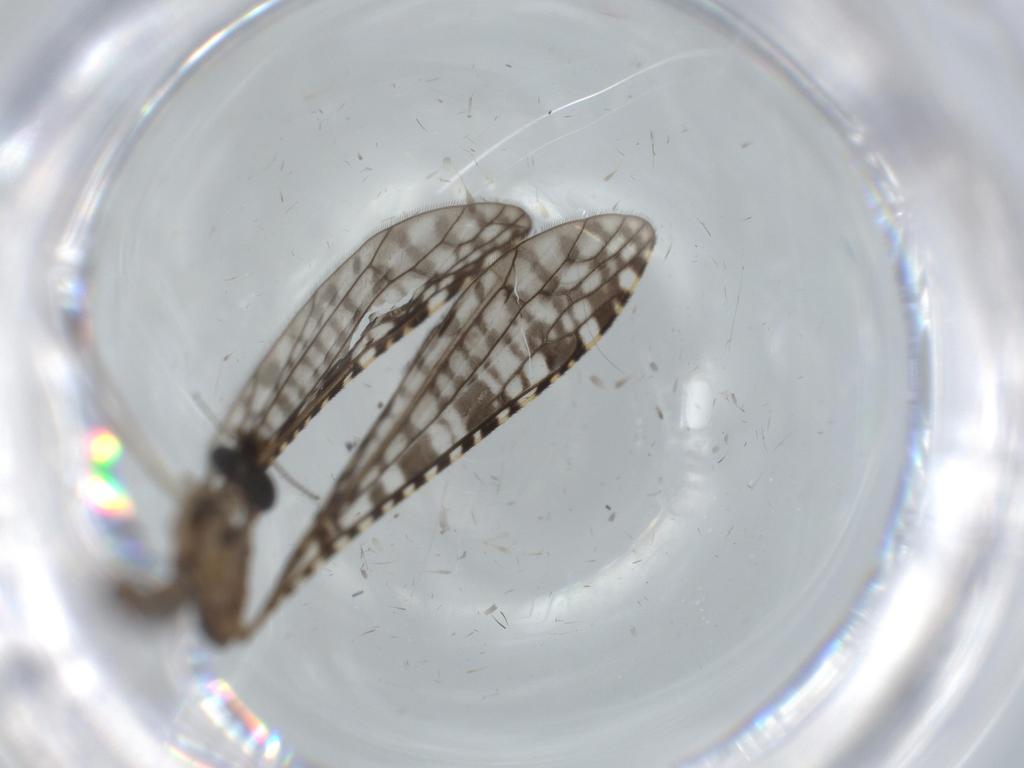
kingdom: Animalia
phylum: Arthropoda
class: Insecta
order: Diptera
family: Limoniidae
